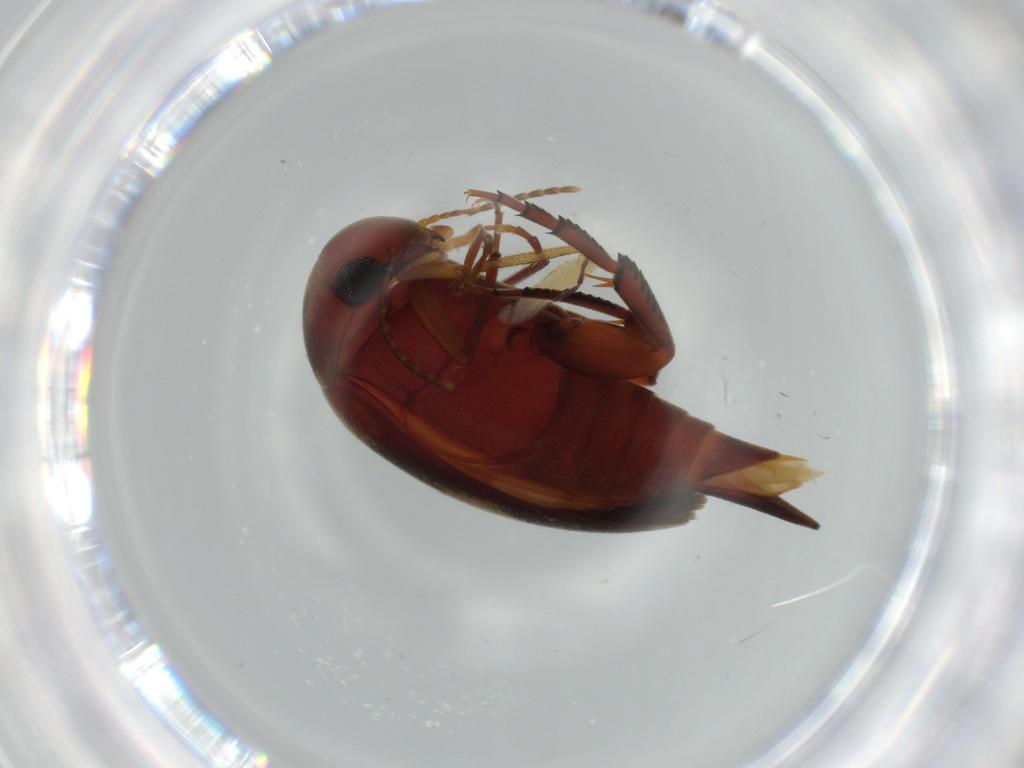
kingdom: Animalia
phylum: Arthropoda
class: Insecta
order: Coleoptera
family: Mordellidae
